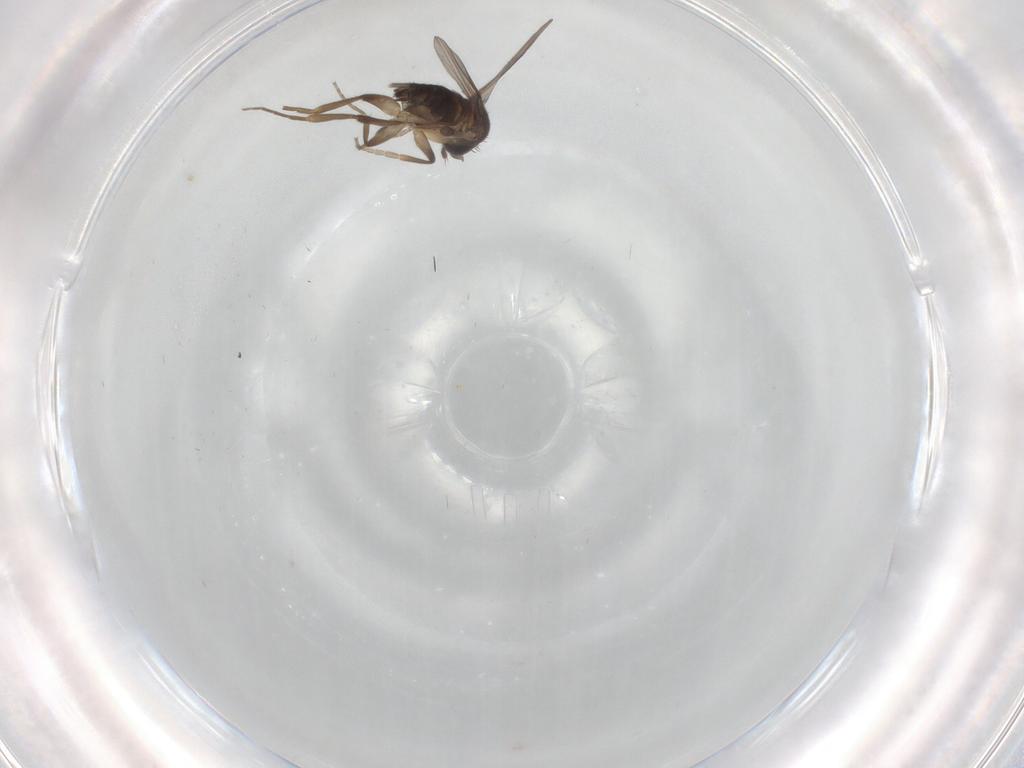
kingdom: Animalia
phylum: Arthropoda
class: Insecta
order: Diptera
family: Phoridae
